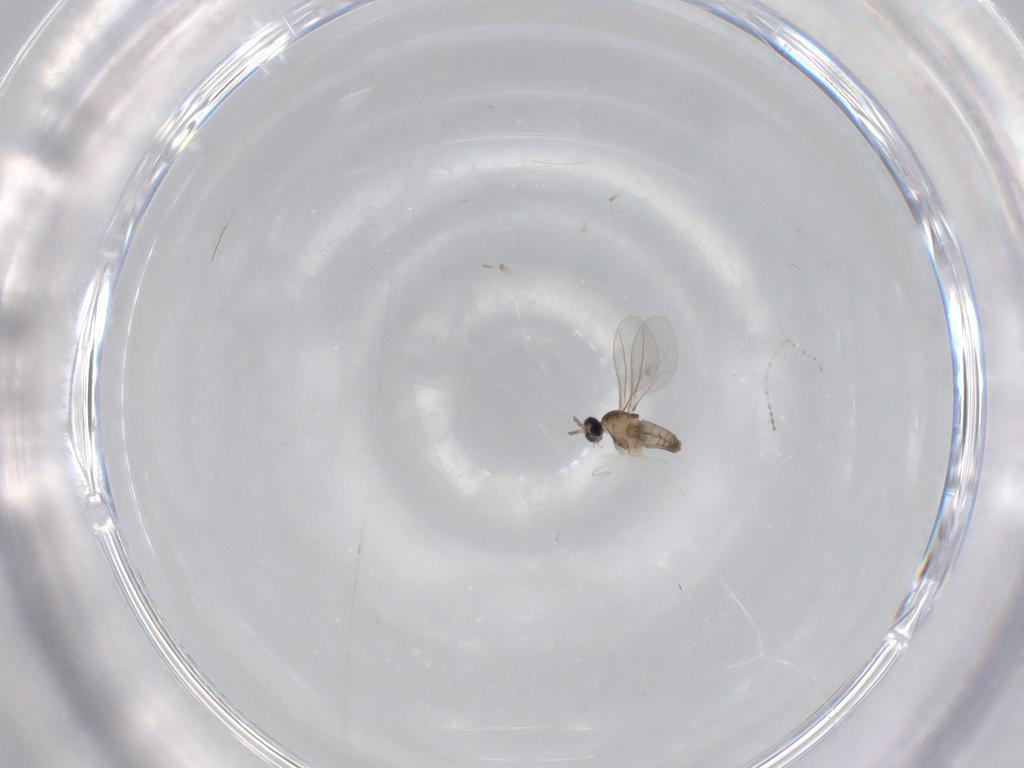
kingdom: Animalia
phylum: Arthropoda
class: Insecta
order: Diptera
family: Cecidomyiidae
